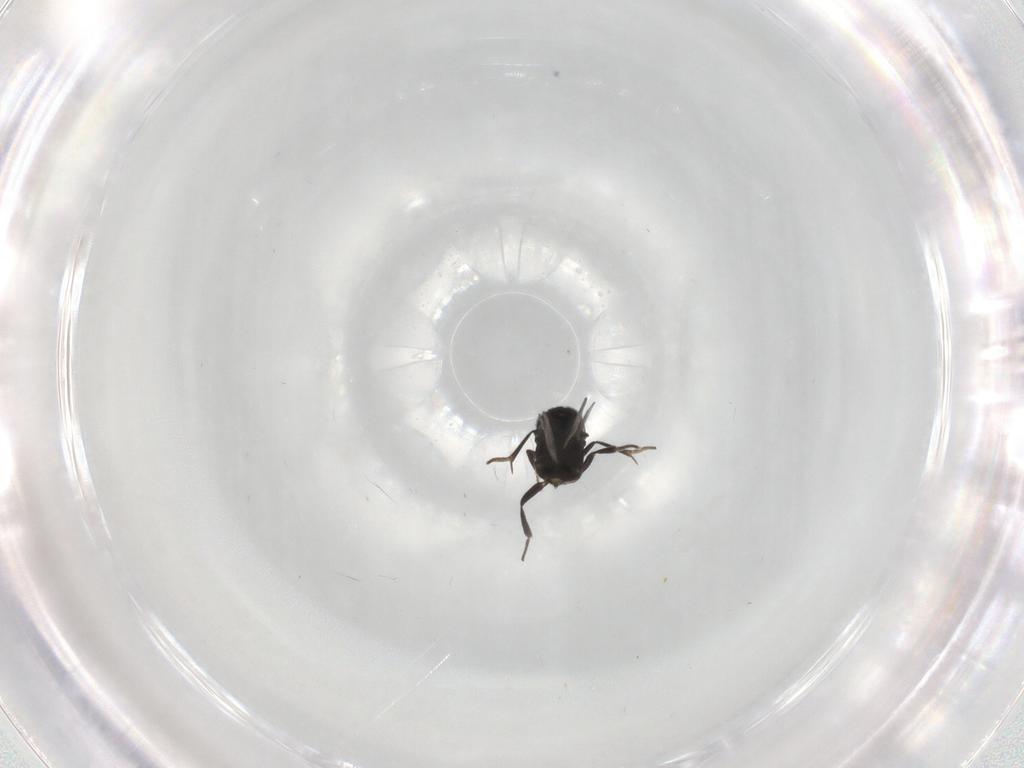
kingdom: Animalia
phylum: Arthropoda
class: Insecta
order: Hymenoptera
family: Encyrtidae
